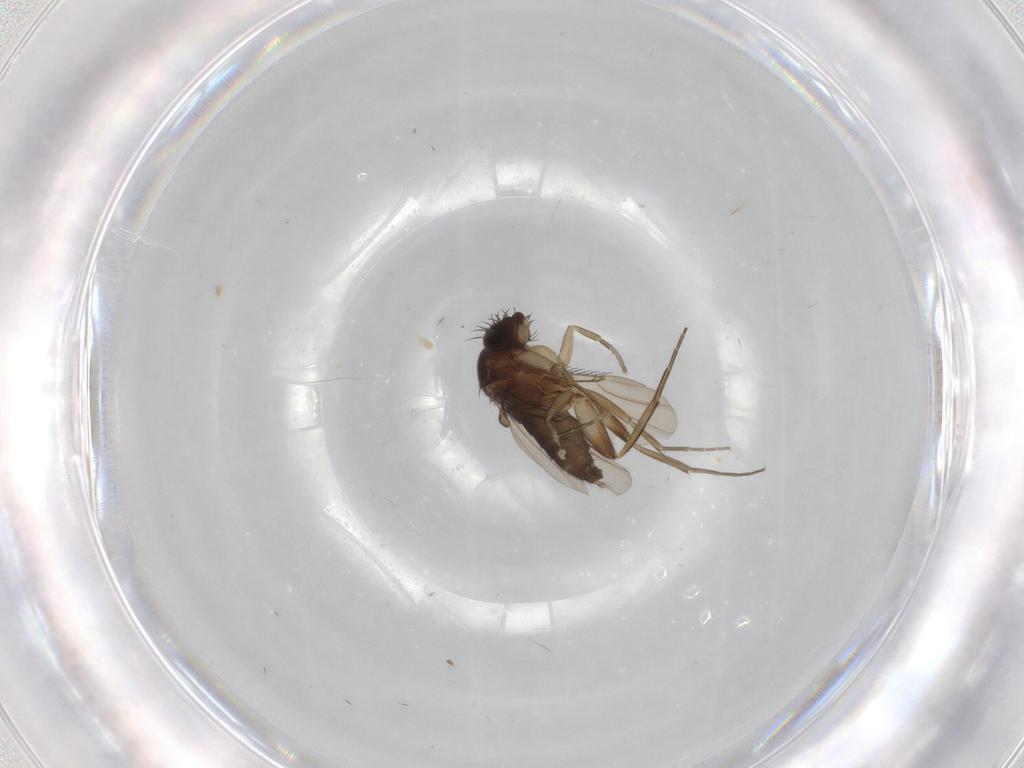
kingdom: Animalia
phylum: Arthropoda
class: Insecta
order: Diptera
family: Phoridae
